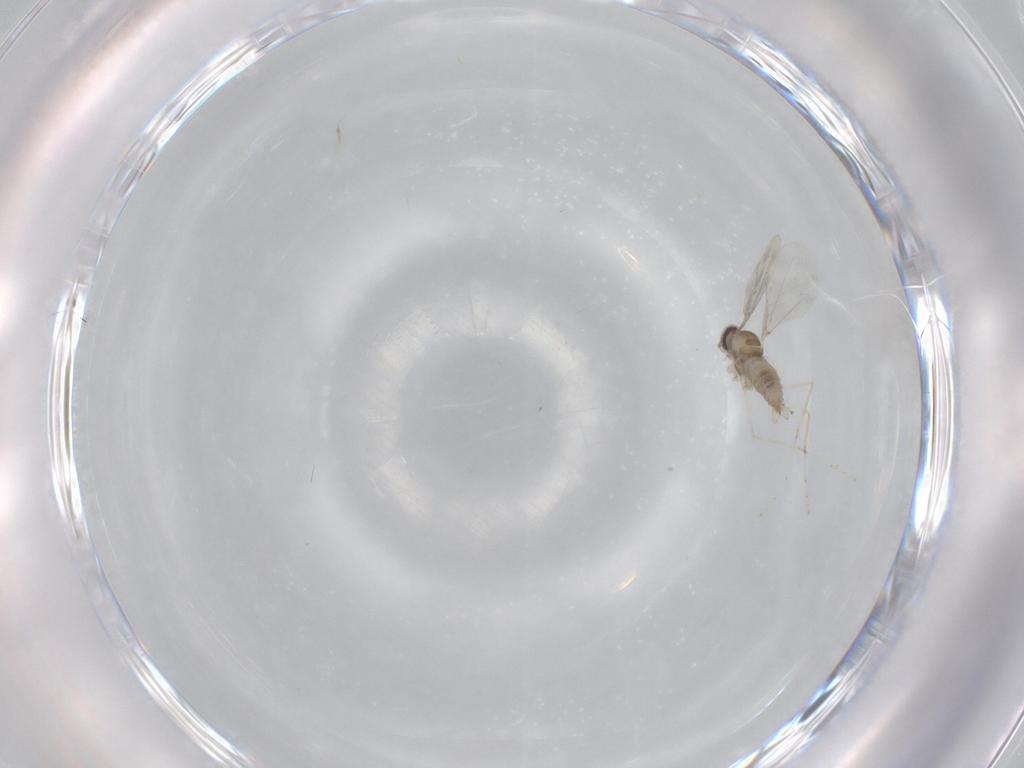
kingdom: Animalia
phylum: Arthropoda
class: Insecta
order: Diptera
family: Cecidomyiidae
